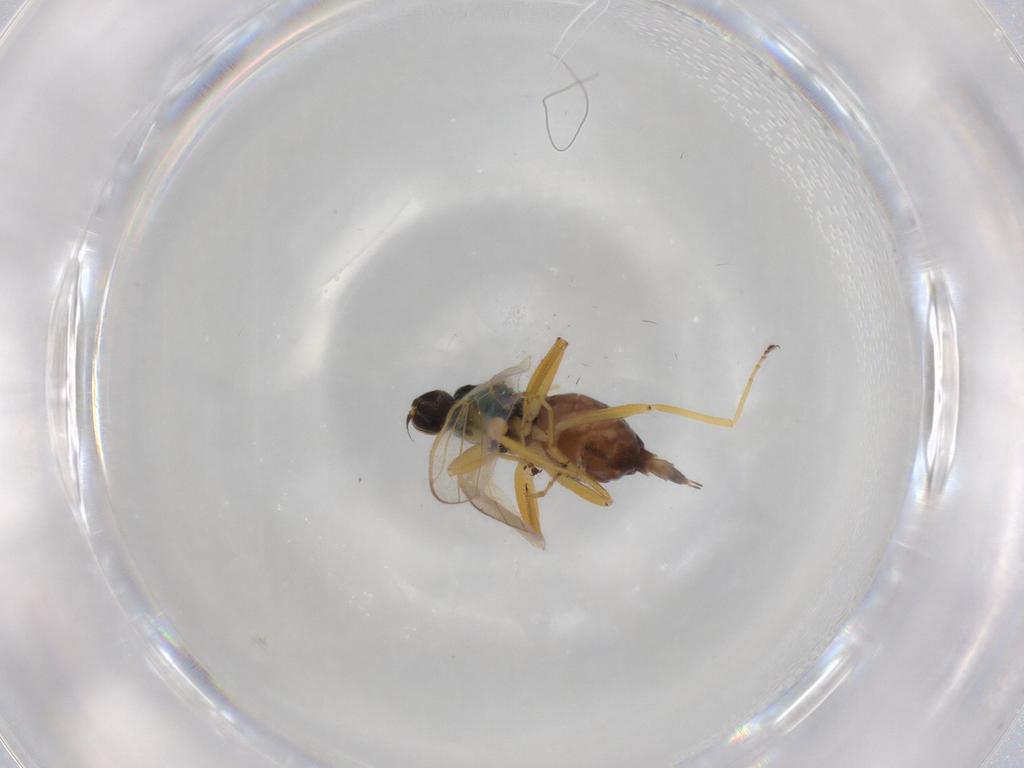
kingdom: Animalia
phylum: Arthropoda
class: Insecta
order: Diptera
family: Hybotidae
